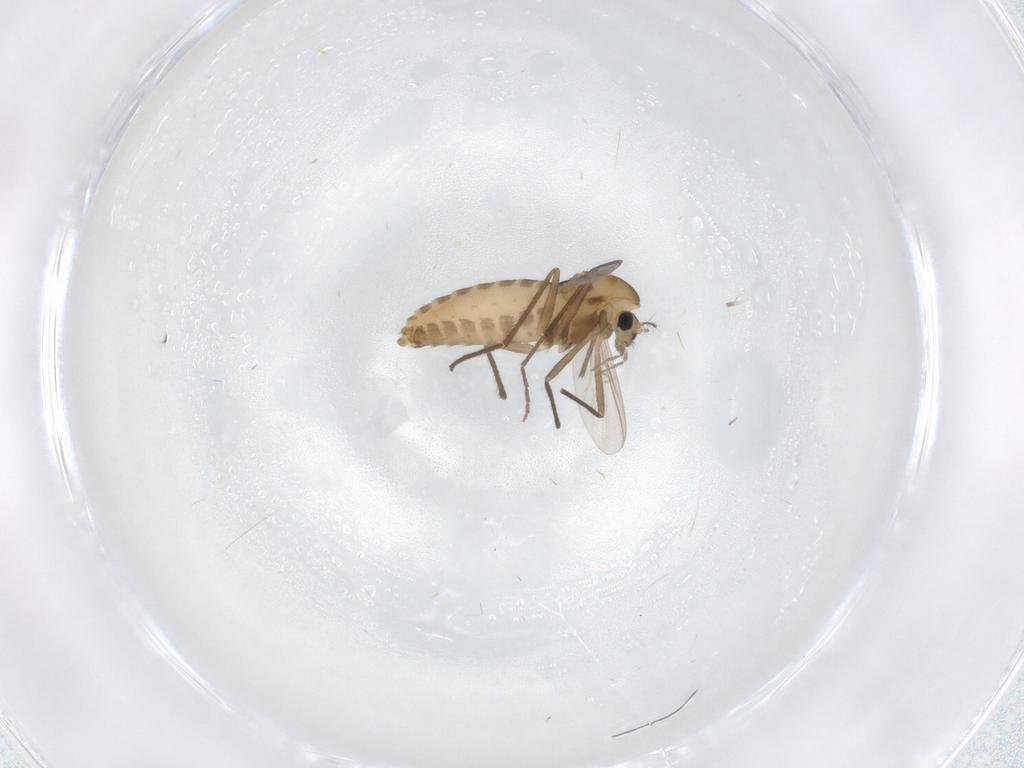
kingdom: Animalia
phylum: Arthropoda
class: Insecta
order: Diptera
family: Chironomidae
